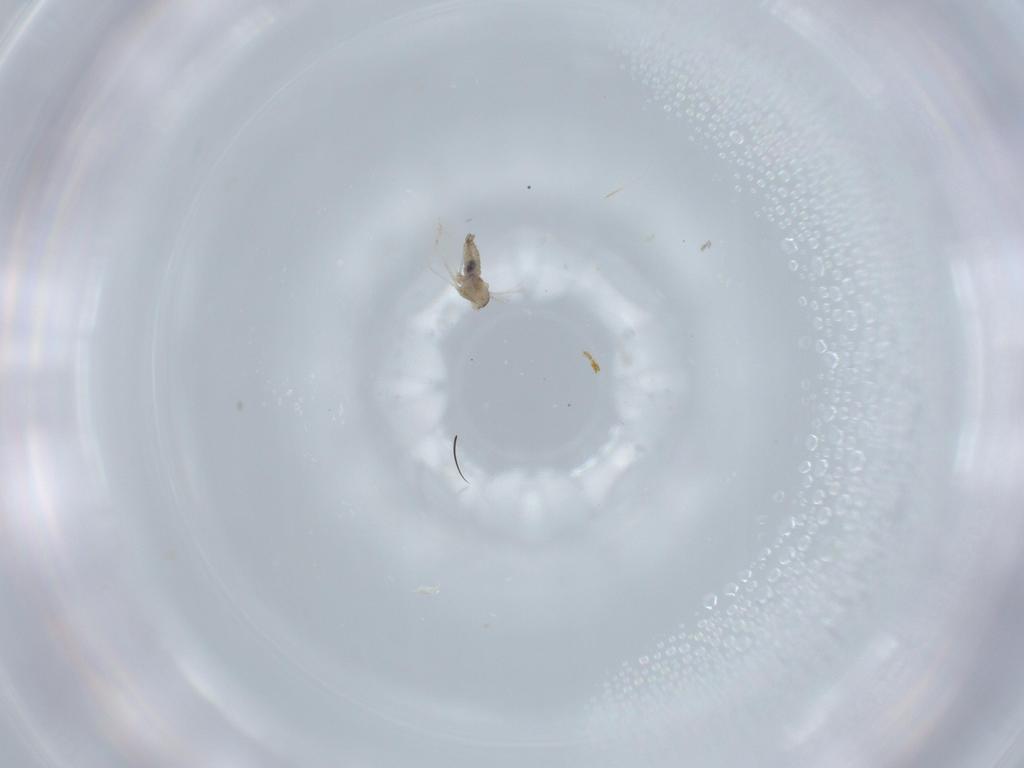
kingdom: Animalia
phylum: Arthropoda
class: Insecta
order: Diptera
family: Cecidomyiidae
